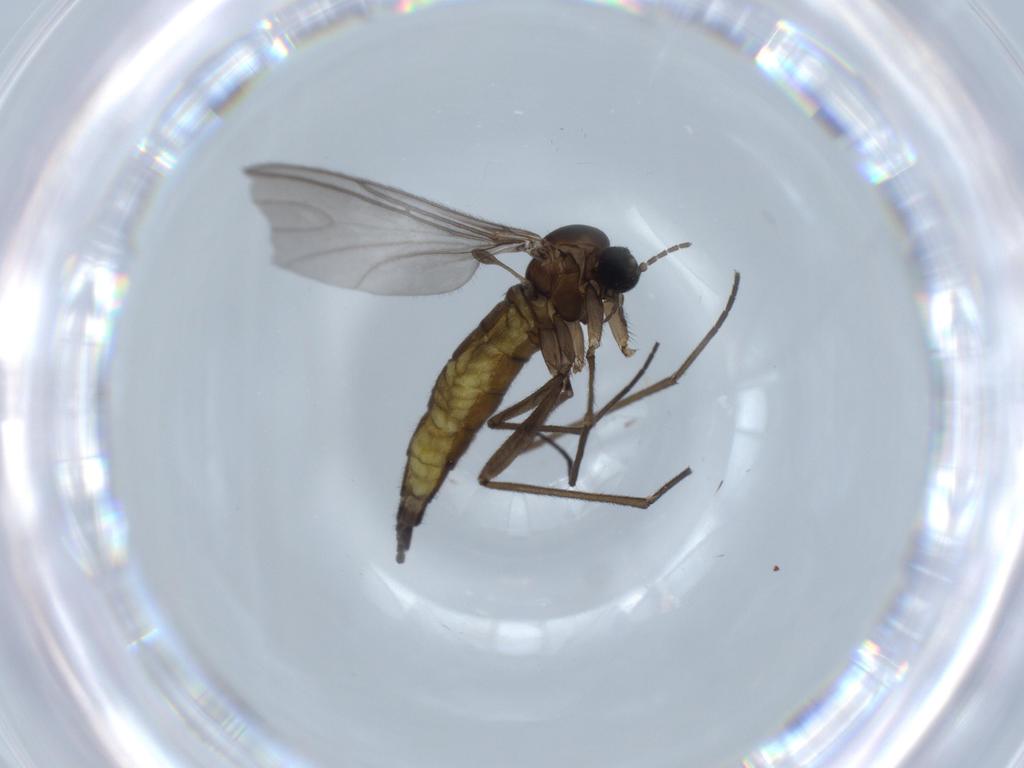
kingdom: Animalia
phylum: Arthropoda
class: Insecta
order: Diptera
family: Sciaridae
